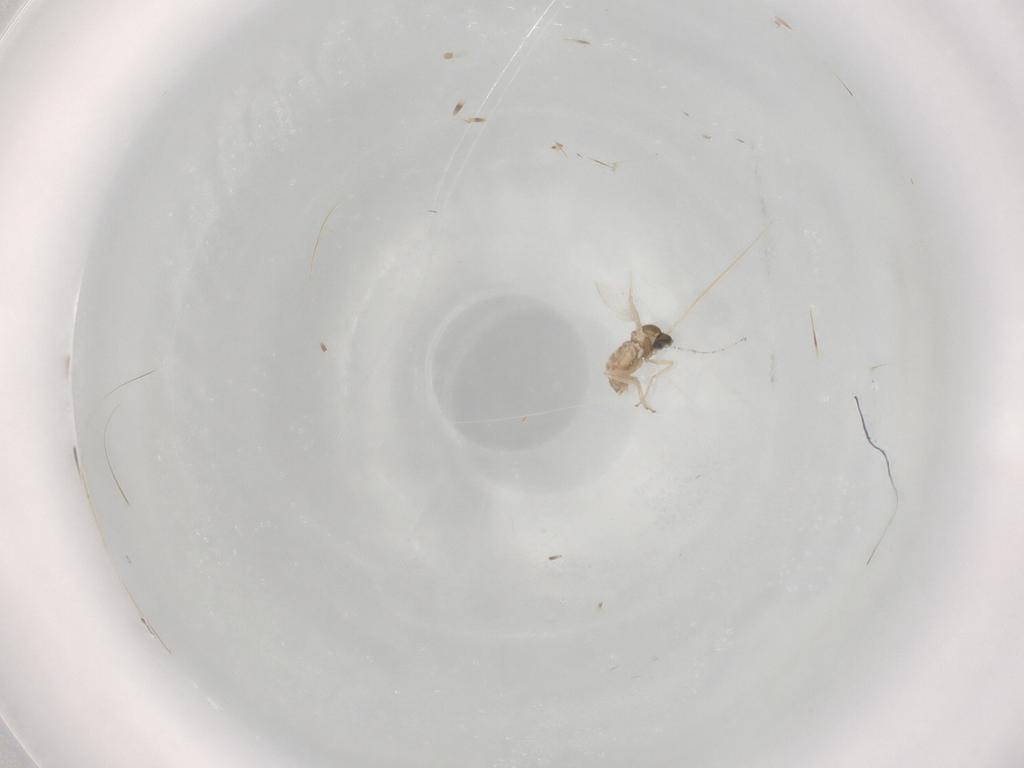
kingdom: Animalia
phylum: Arthropoda
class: Insecta
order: Diptera
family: Cecidomyiidae
